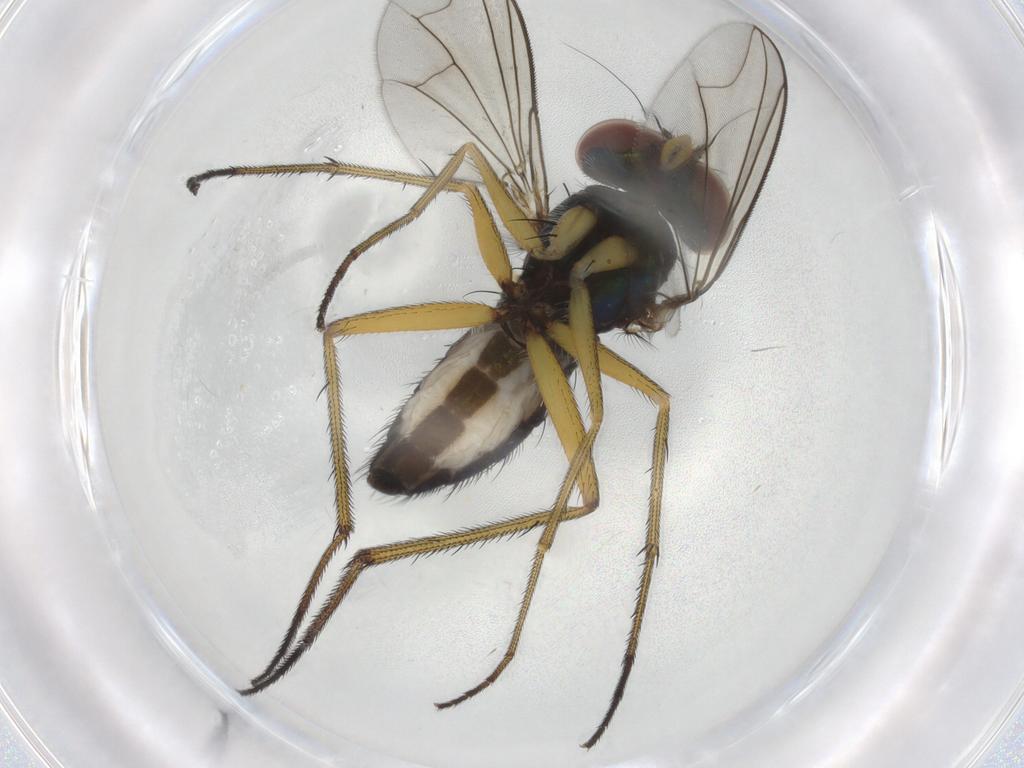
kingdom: Animalia
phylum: Arthropoda
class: Insecta
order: Diptera
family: Dolichopodidae
